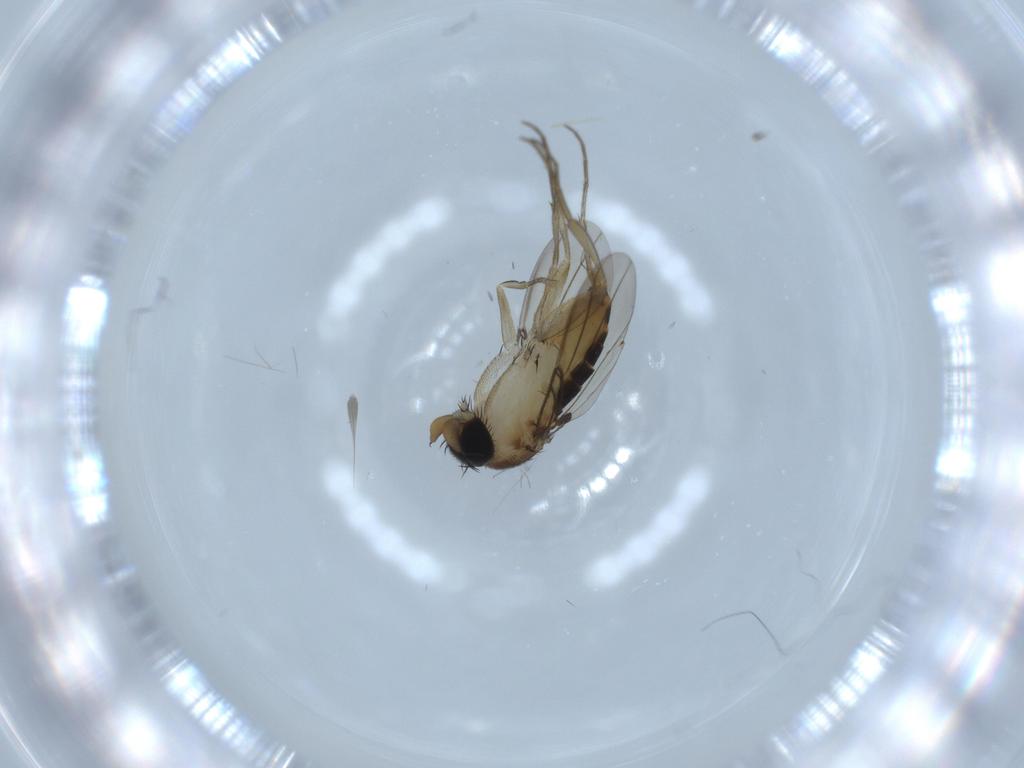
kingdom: Animalia
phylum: Arthropoda
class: Insecta
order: Diptera
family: Phoridae
